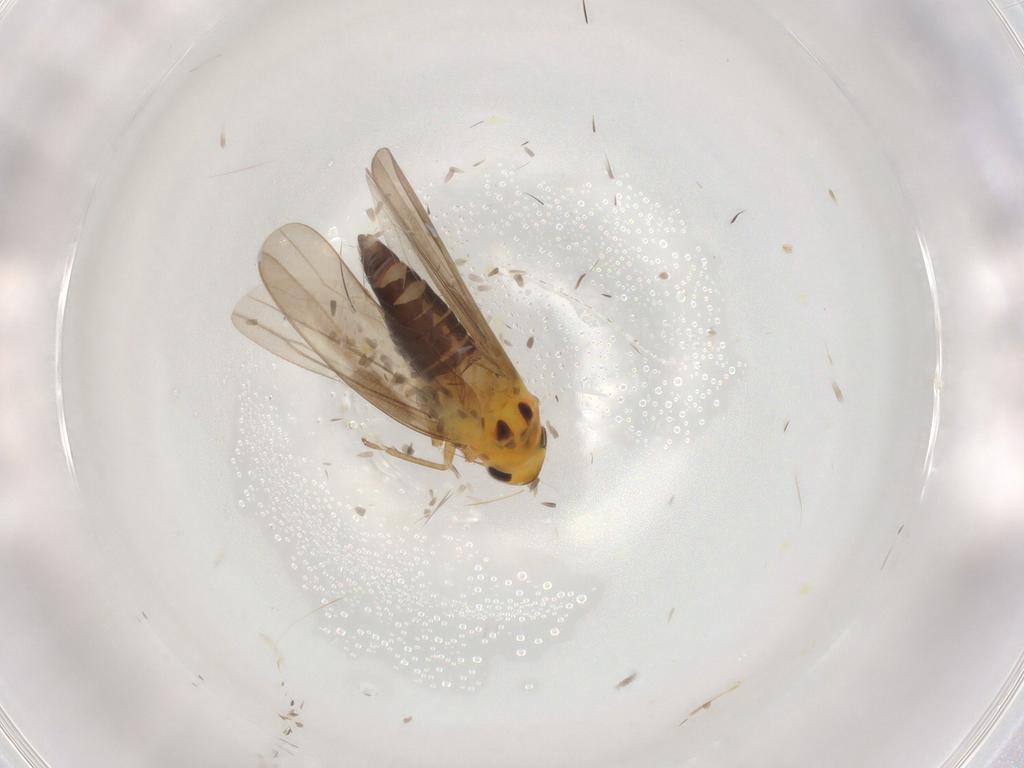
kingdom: Animalia
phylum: Arthropoda
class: Insecta
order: Hemiptera
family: Cicadellidae
